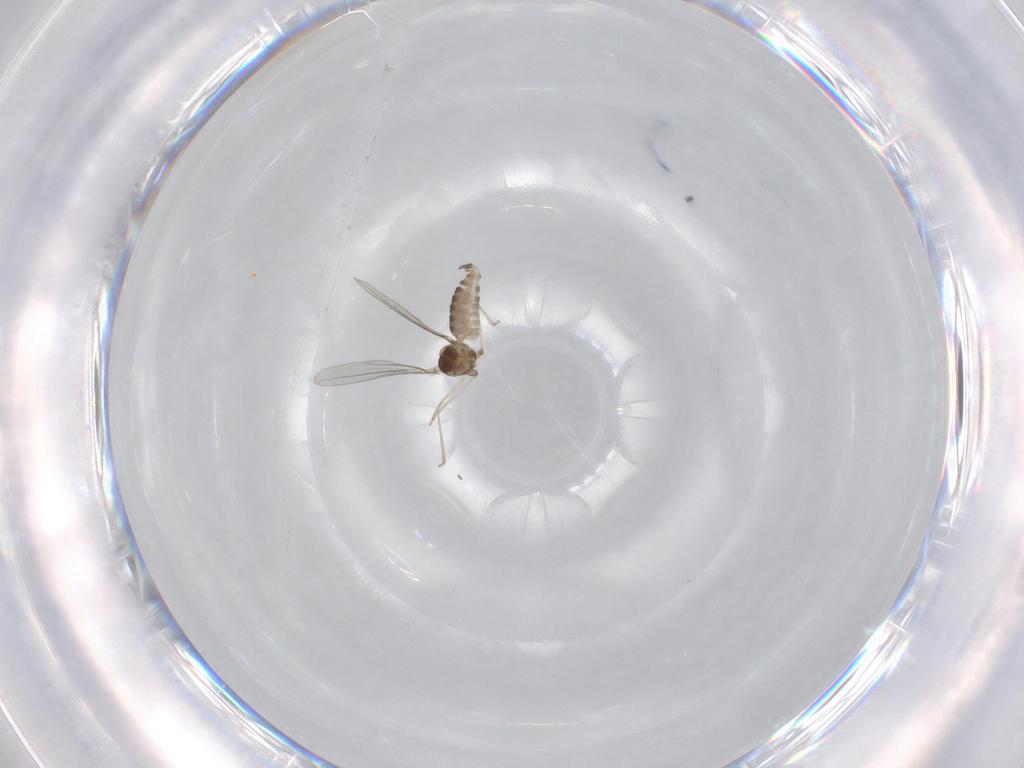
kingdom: Animalia
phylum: Arthropoda
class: Insecta
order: Diptera
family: Cecidomyiidae
